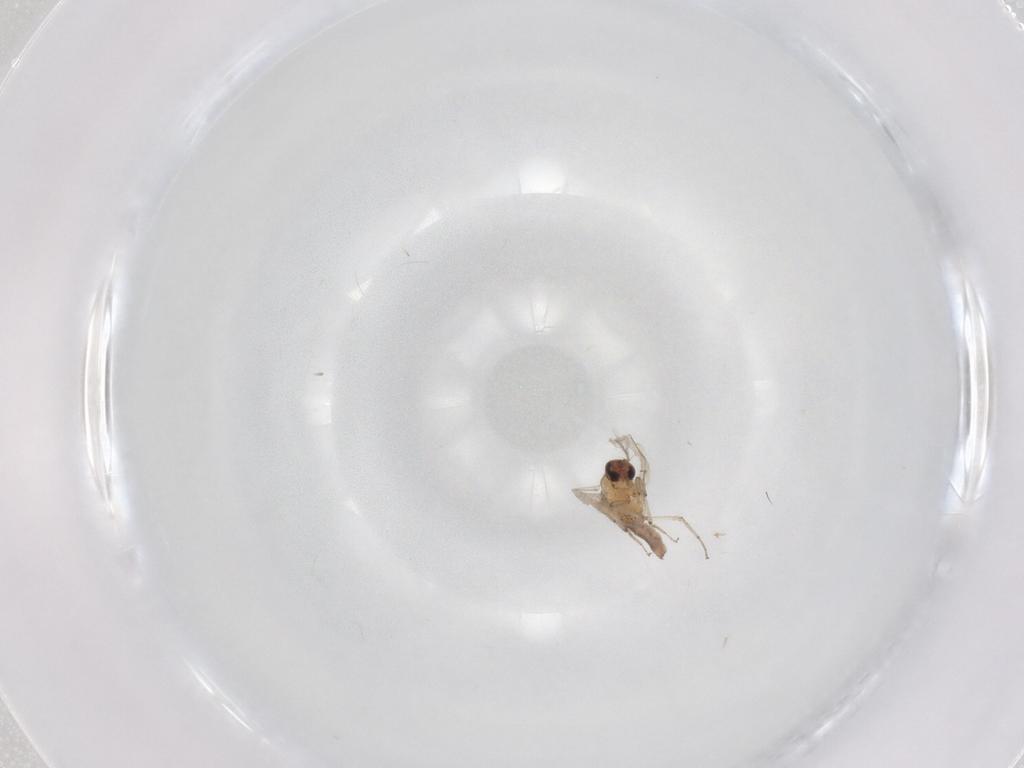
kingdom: Animalia
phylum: Arthropoda
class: Insecta
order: Diptera
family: Ceratopogonidae
